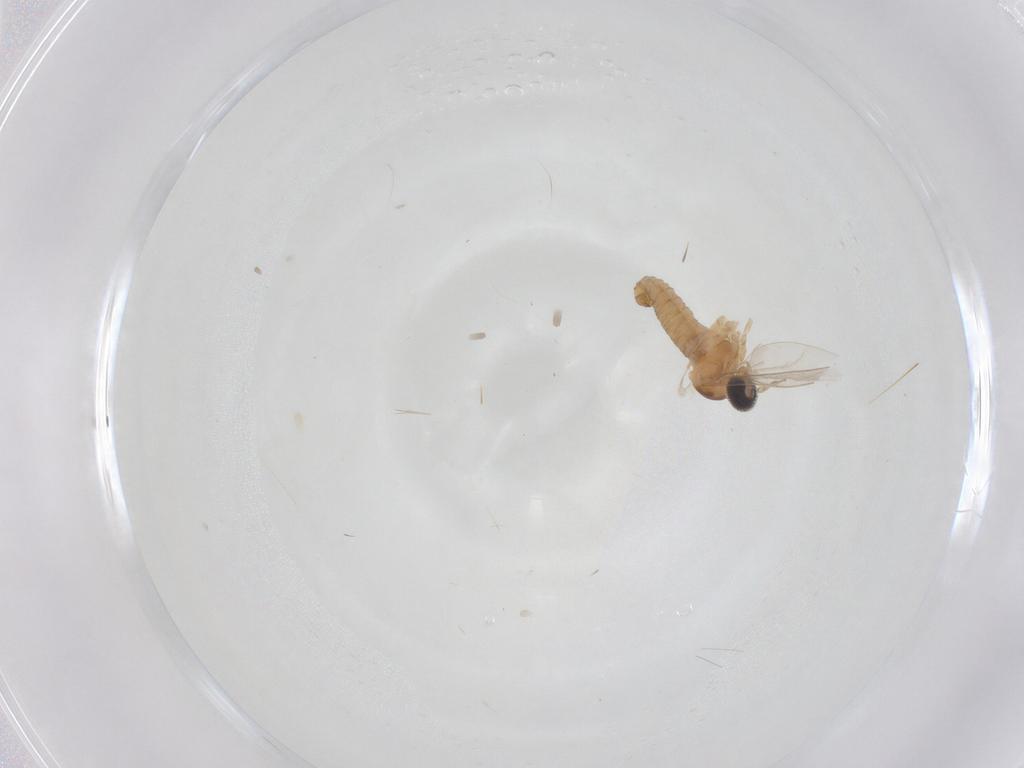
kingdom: Animalia
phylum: Arthropoda
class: Insecta
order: Diptera
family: Cecidomyiidae
